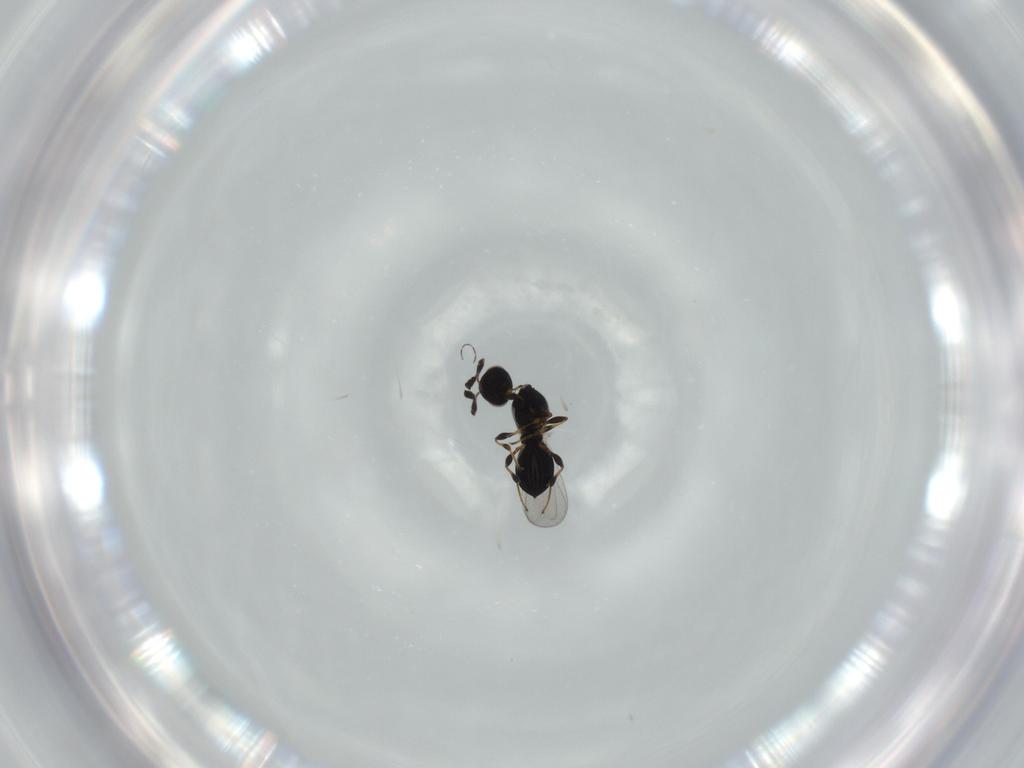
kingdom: Animalia
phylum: Arthropoda
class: Insecta
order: Hymenoptera
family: Platygastridae
